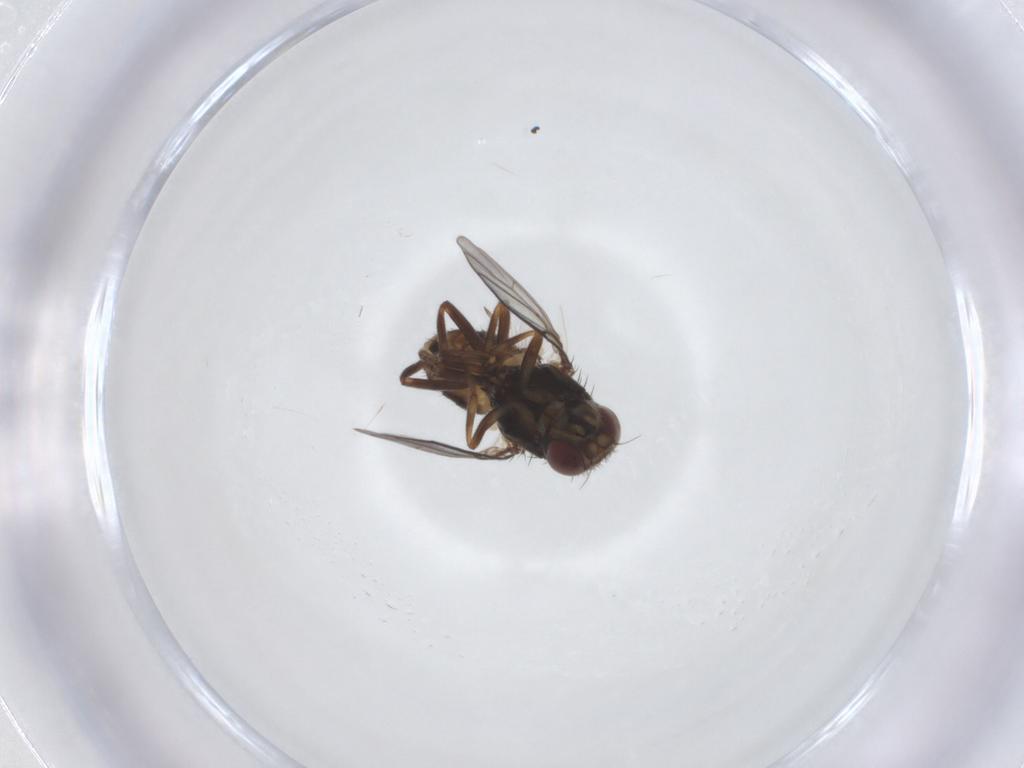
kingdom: Animalia
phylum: Arthropoda
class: Insecta
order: Diptera
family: Chloropidae
